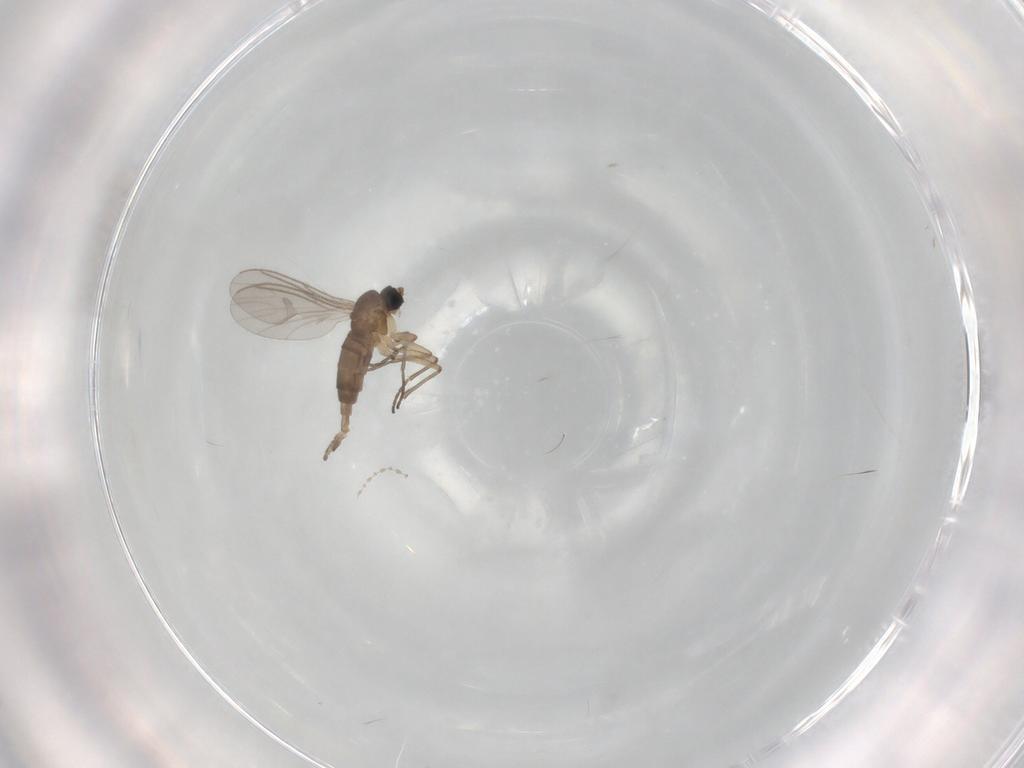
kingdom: Animalia
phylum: Arthropoda
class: Insecta
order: Diptera
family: Chironomidae
